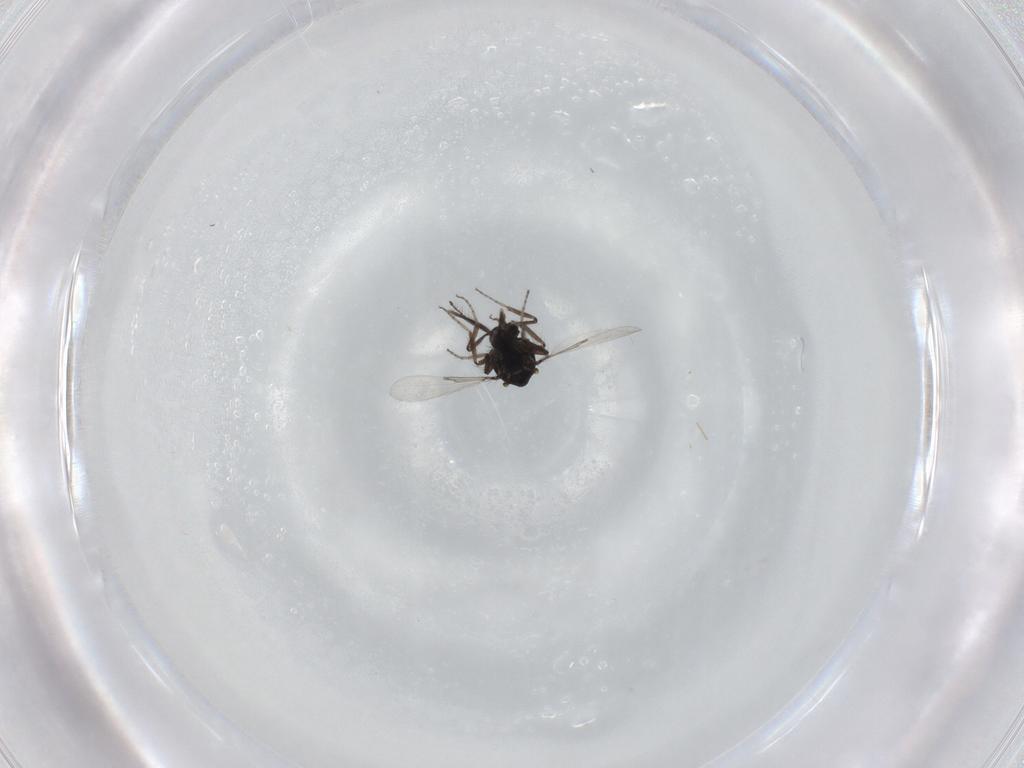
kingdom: Animalia
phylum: Arthropoda
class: Insecta
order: Diptera
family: Ceratopogonidae
